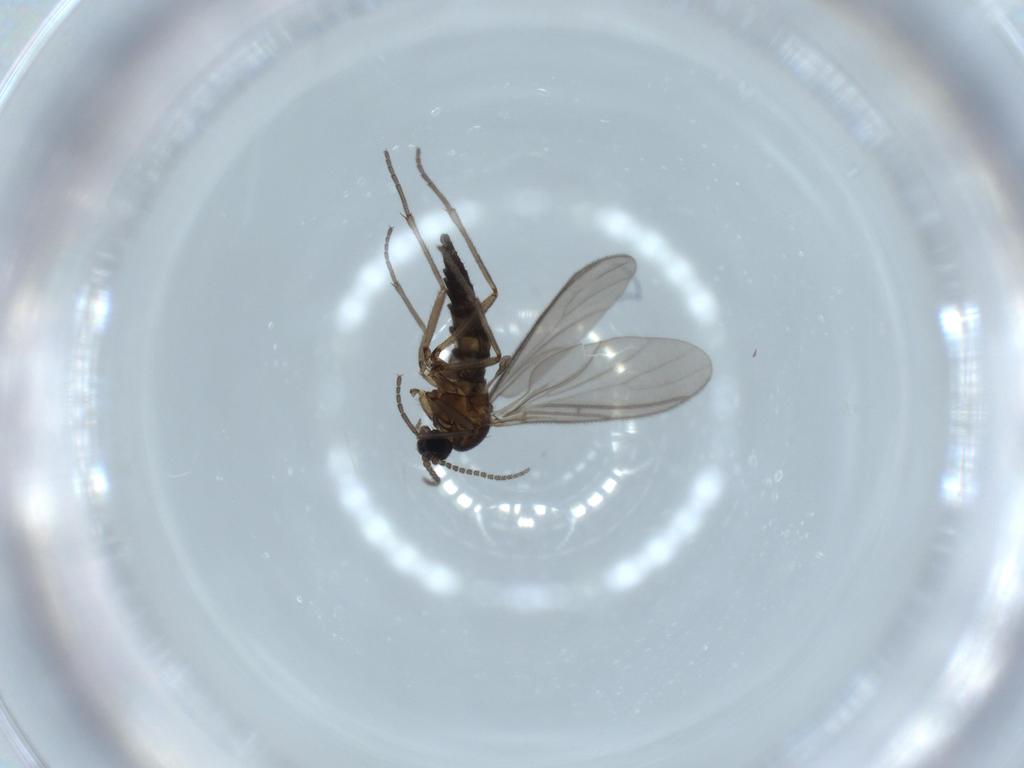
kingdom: Animalia
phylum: Arthropoda
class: Insecta
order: Diptera
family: Sciaridae
